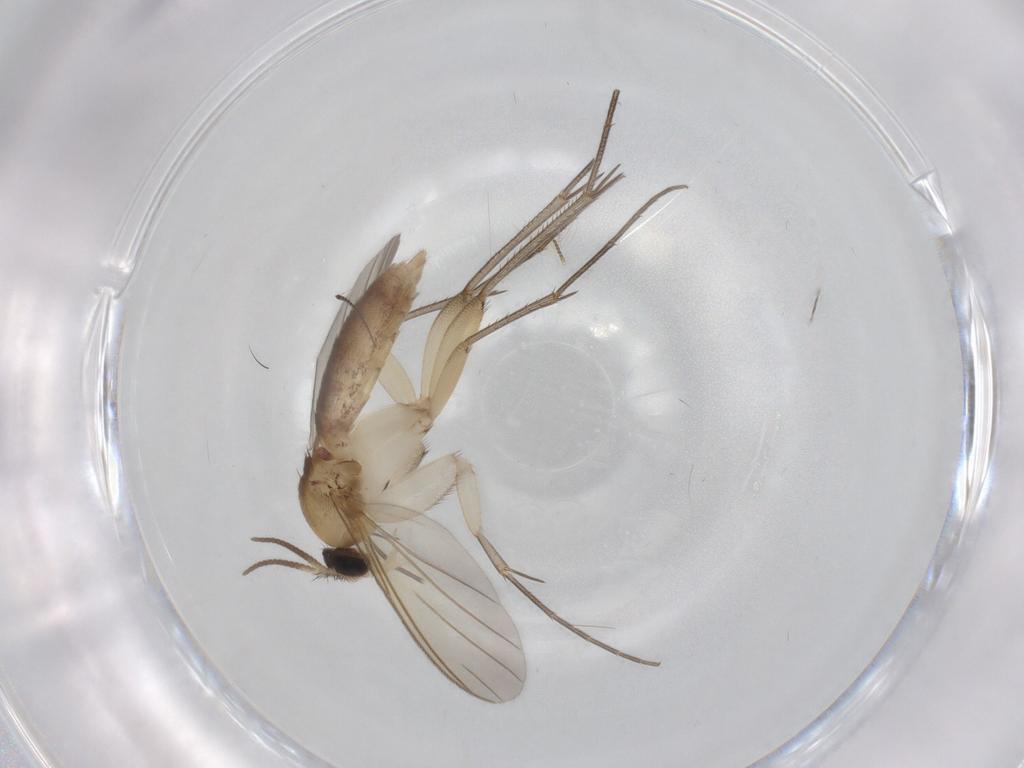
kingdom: Animalia
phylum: Arthropoda
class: Insecta
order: Diptera
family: Mycetophilidae
